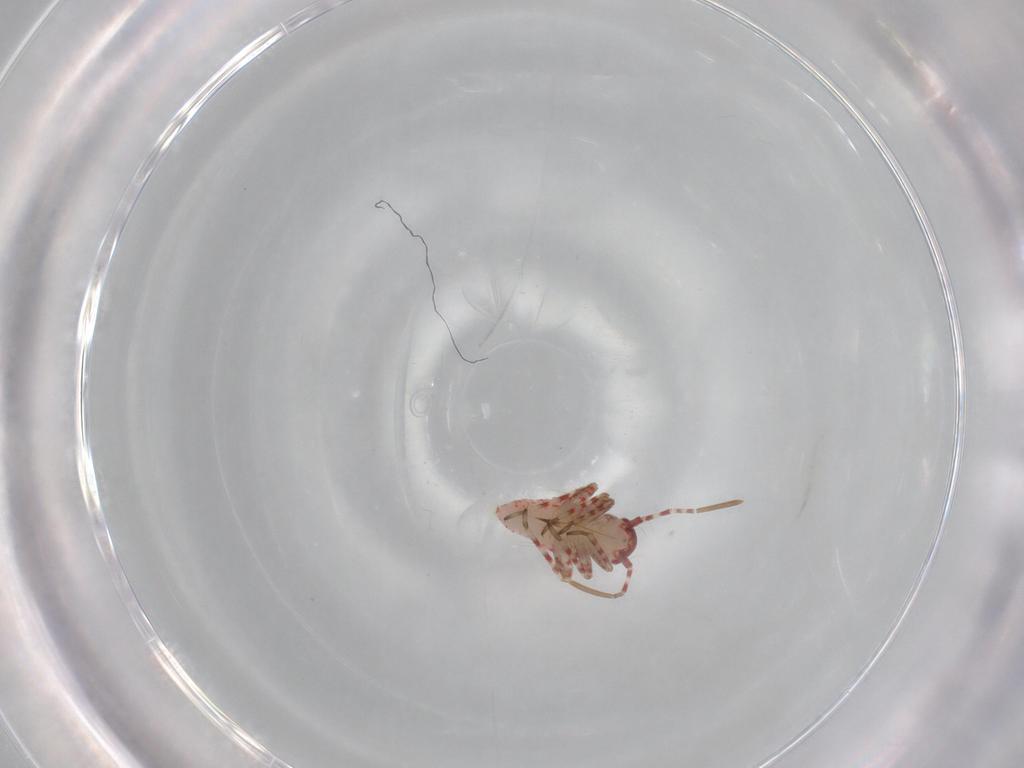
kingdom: Animalia
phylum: Arthropoda
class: Insecta
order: Hemiptera
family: Miridae
